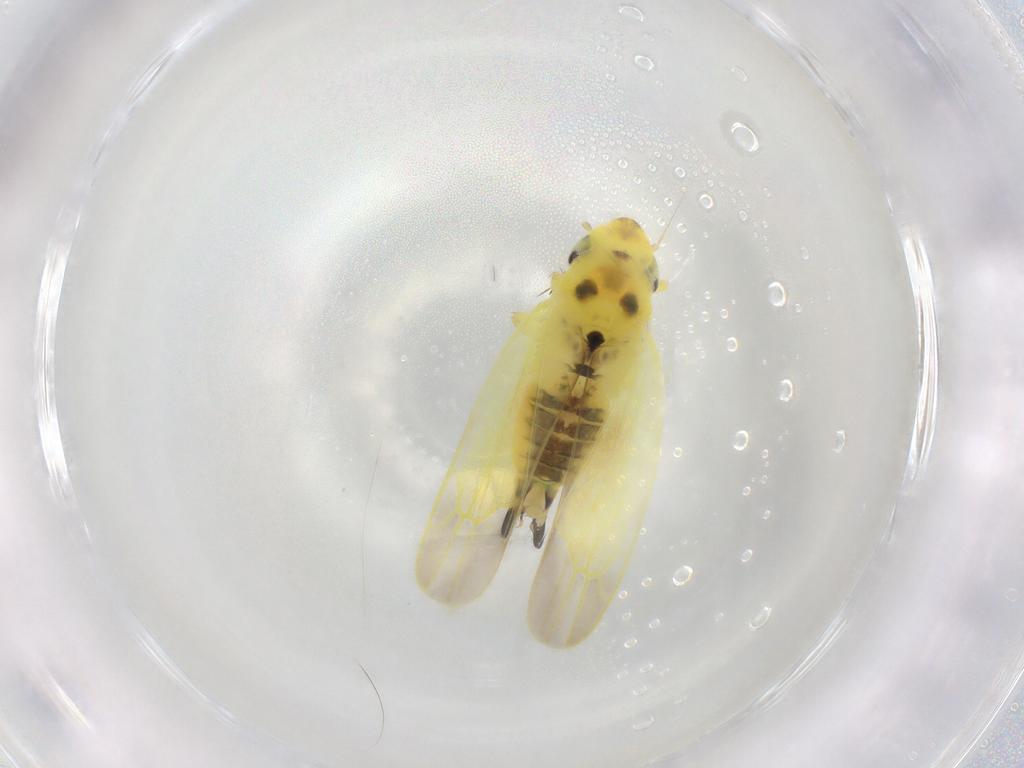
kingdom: Animalia
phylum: Arthropoda
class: Insecta
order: Hemiptera
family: Cicadellidae
